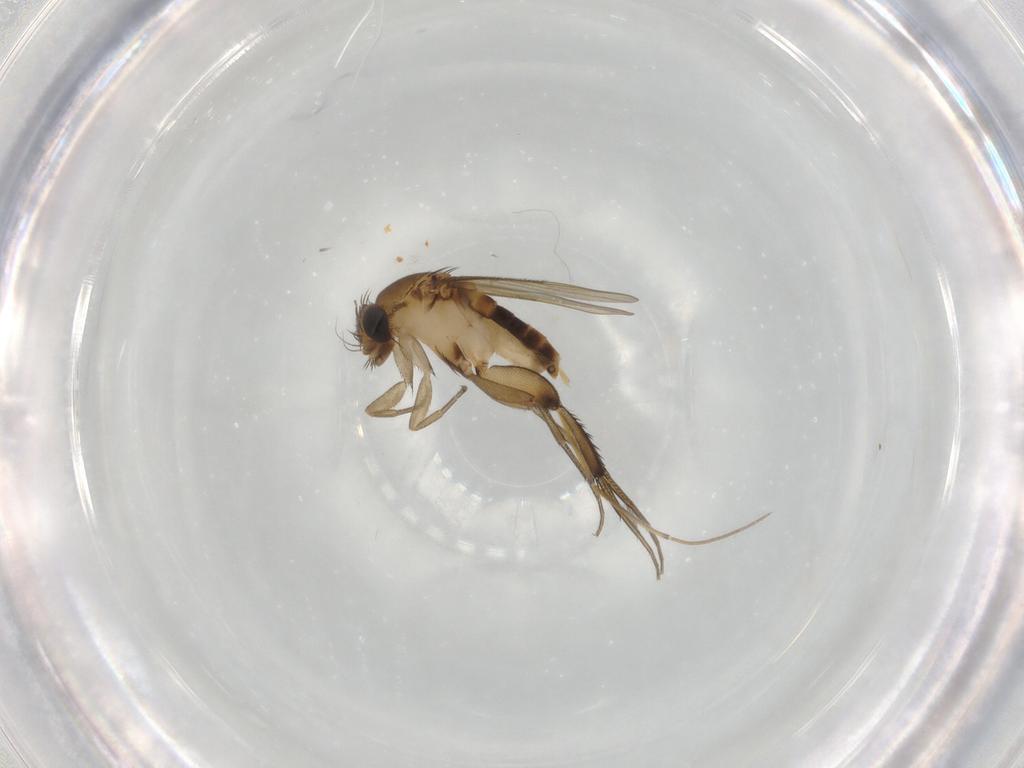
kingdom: Animalia
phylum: Arthropoda
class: Insecta
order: Diptera
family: Phoridae
